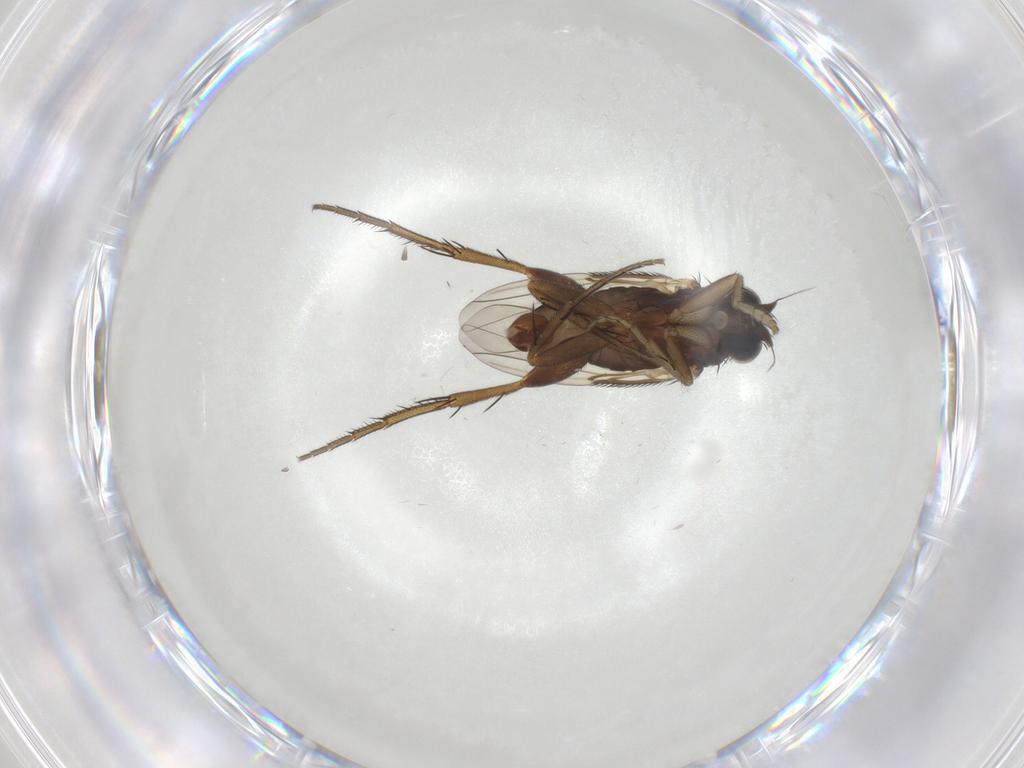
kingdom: Animalia
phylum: Arthropoda
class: Insecta
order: Diptera
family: Phoridae
